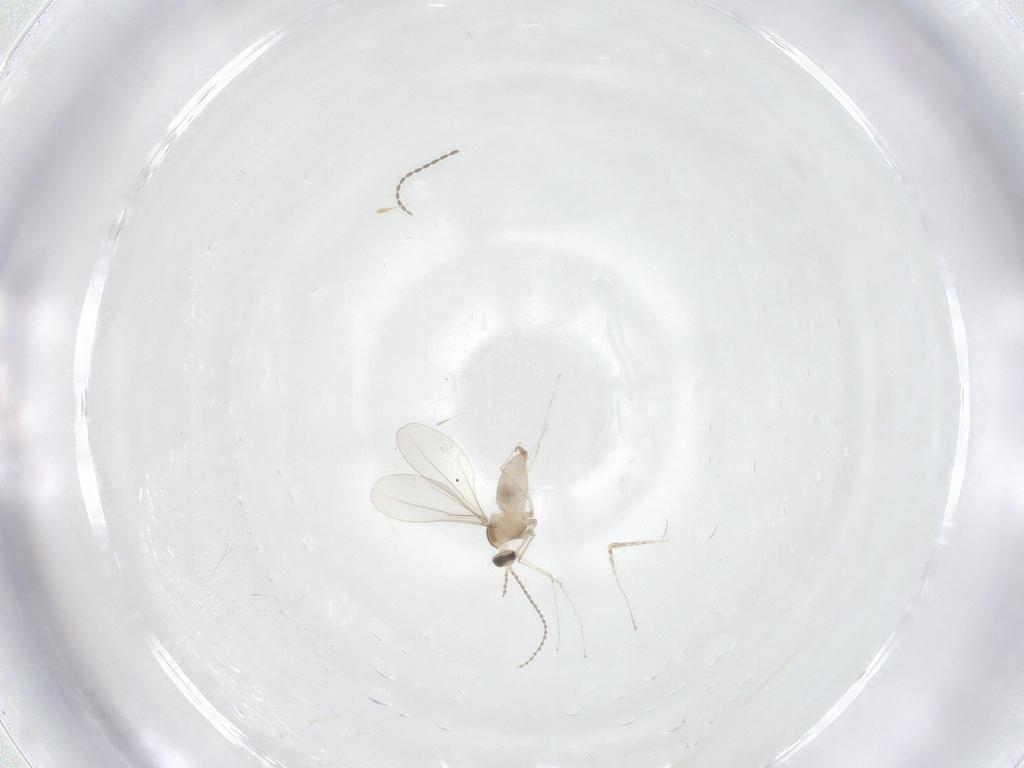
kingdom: Animalia
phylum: Arthropoda
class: Insecta
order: Diptera
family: Cecidomyiidae
